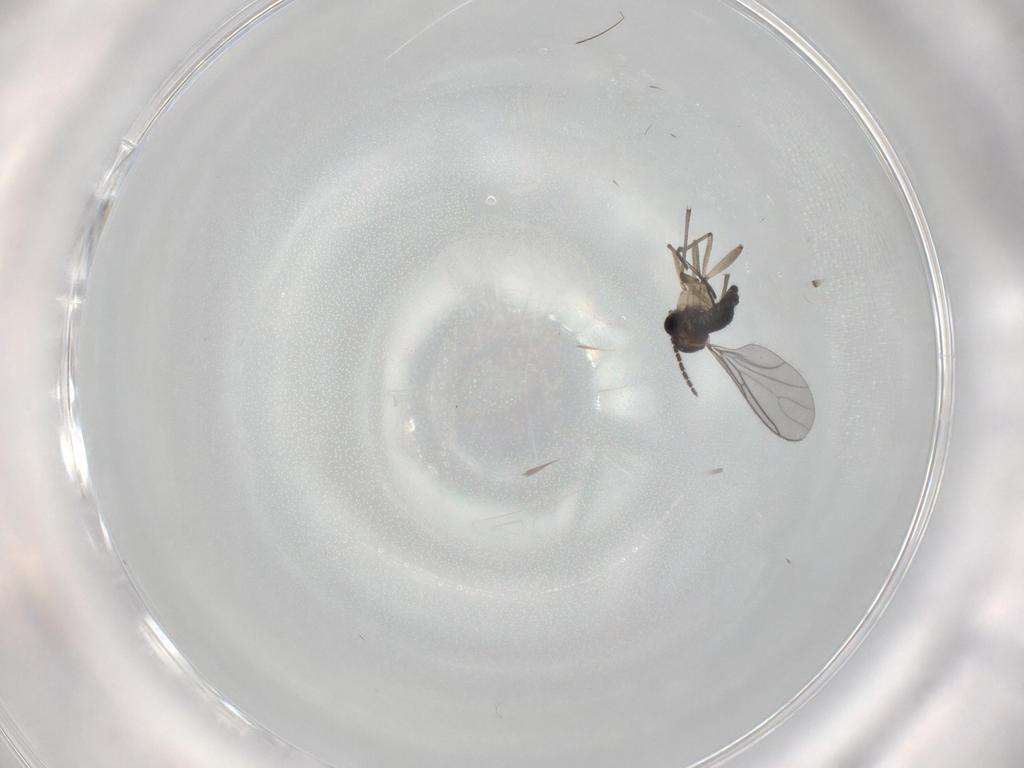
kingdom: Animalia
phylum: Arthropoda
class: Insecta
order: Diptera
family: Sciaridae
